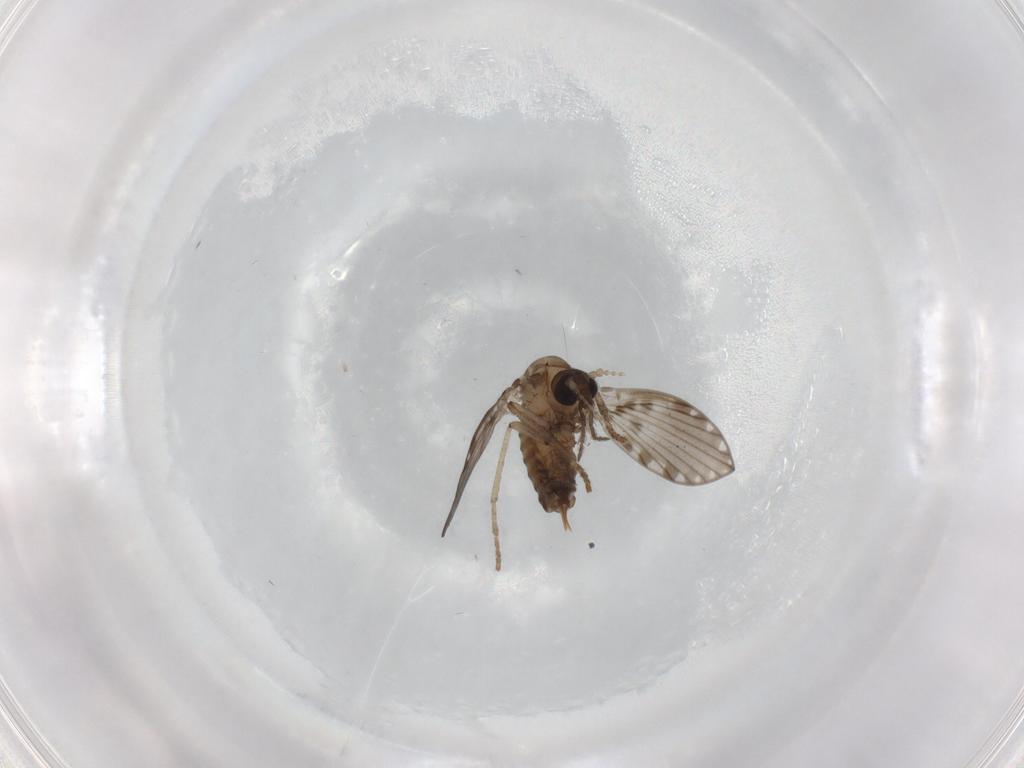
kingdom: Animalia
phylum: Arthropoda
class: Insecta
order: Diptera
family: Psychodidae
